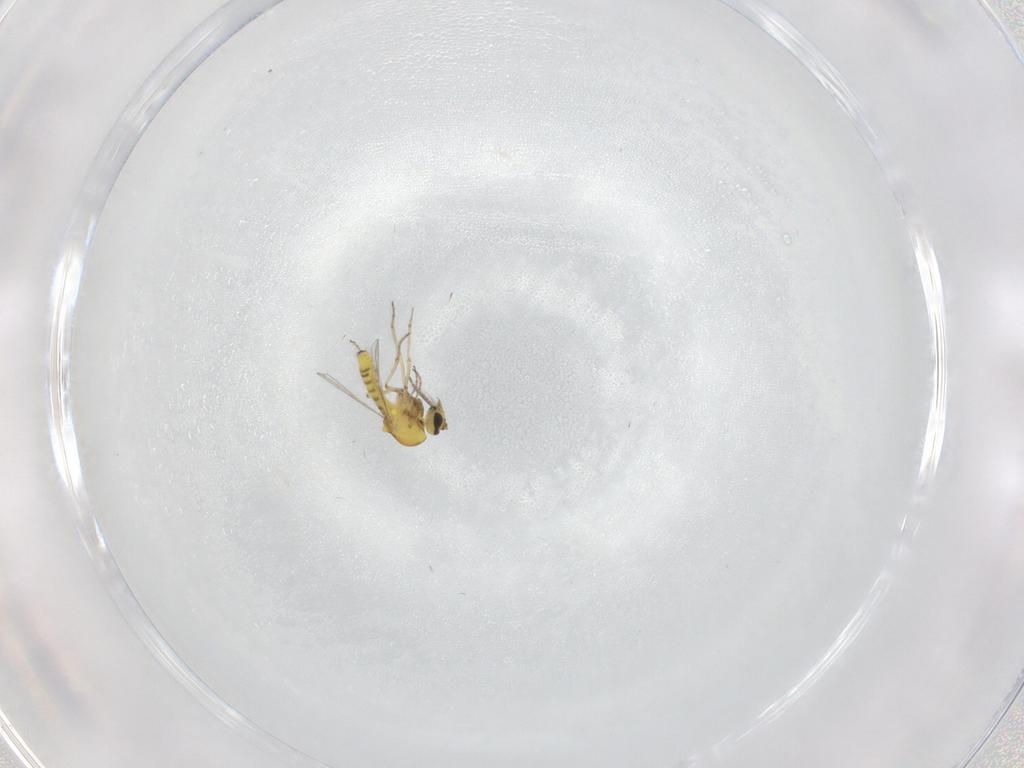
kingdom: Animalia
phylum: Arthropoda
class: Insecta
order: Diptera
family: Ceratopogonidae
